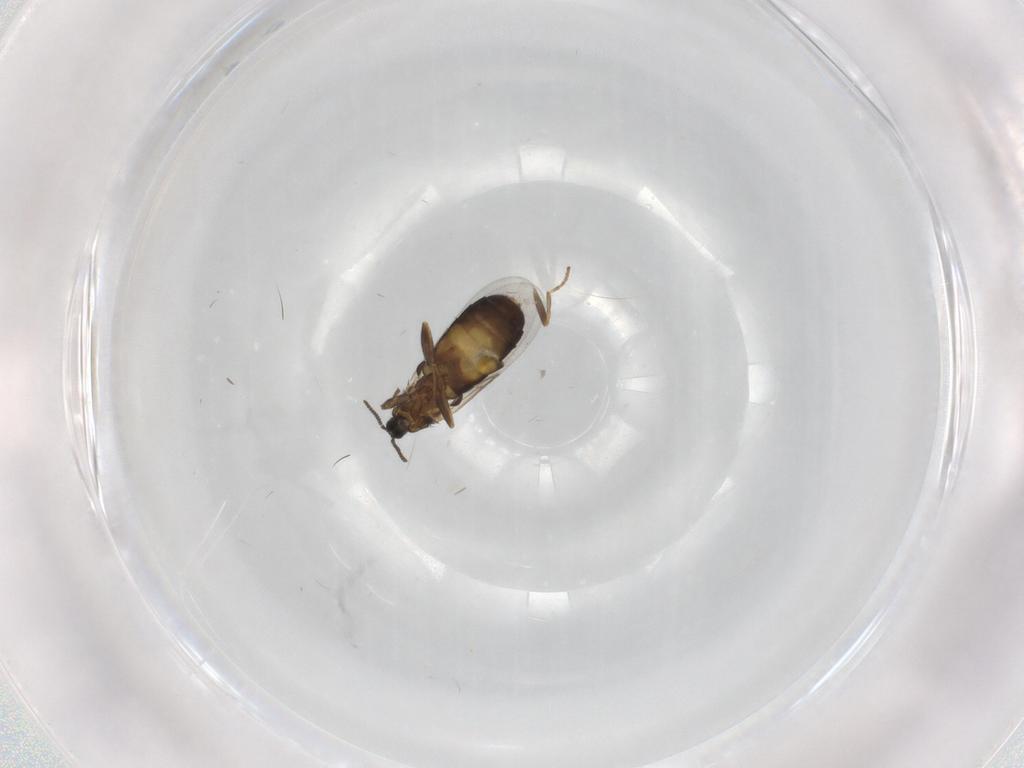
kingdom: Animalia
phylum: Arthropoda
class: Insecta
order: Diptera
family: Scatopsidae
